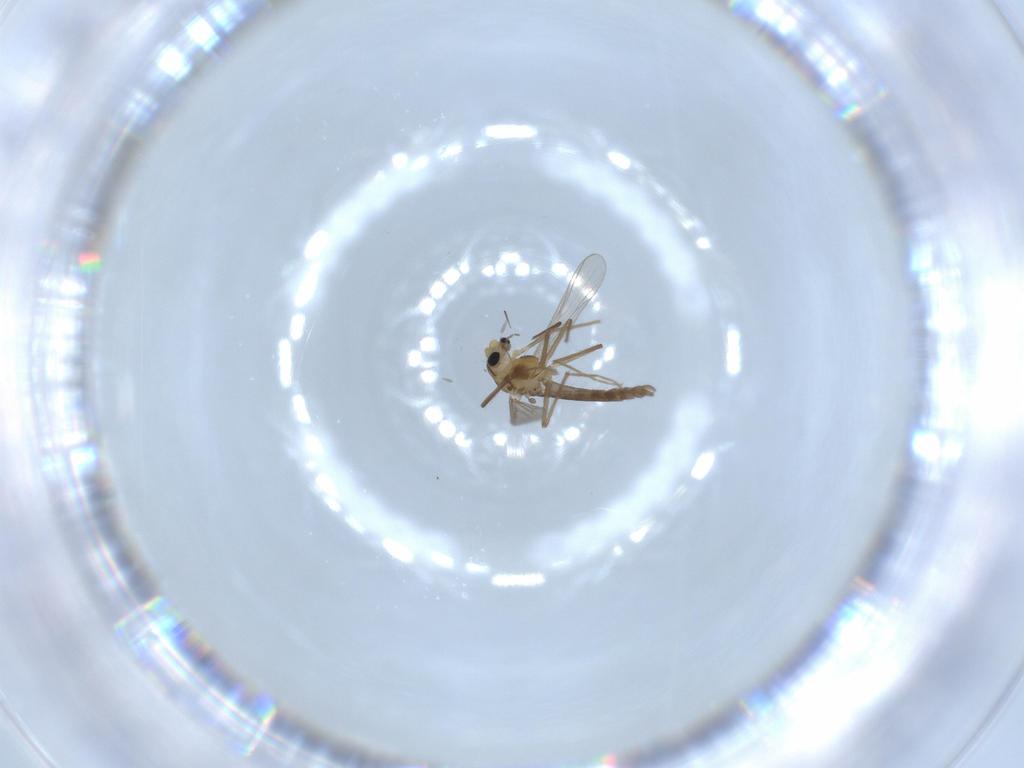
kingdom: Animalia
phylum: Arthropoda
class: Insecta
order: Diptera
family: Chironomidae
